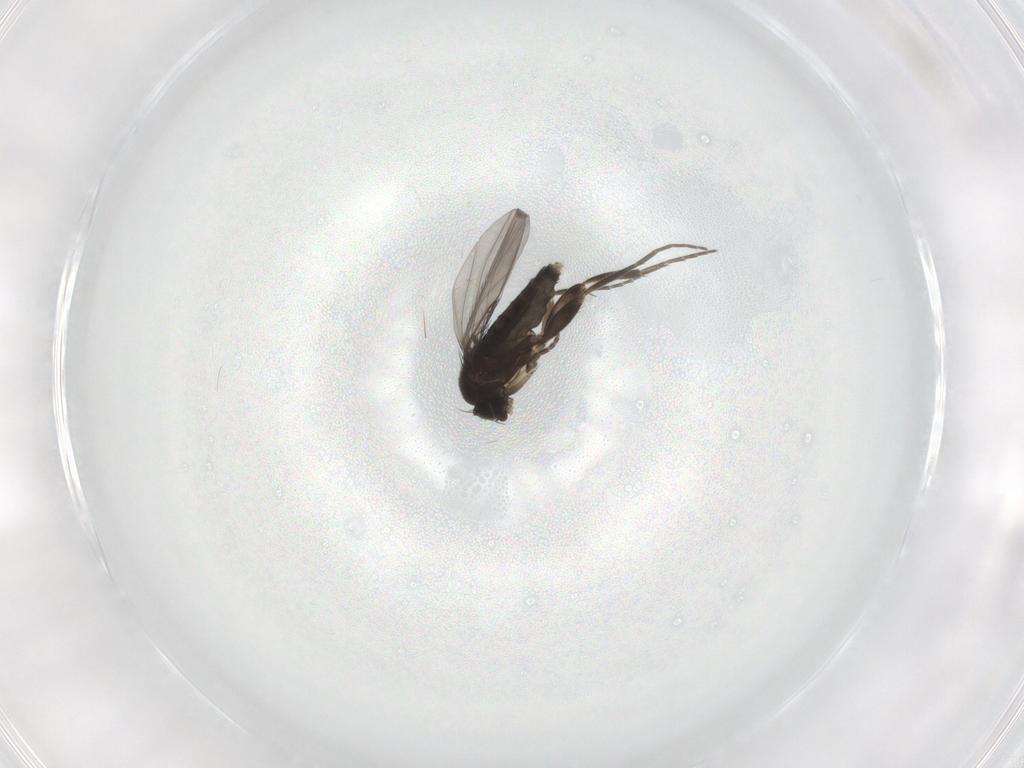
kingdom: Animalia
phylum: Arthropoda
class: Insecta
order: Diptera
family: Phoridae
